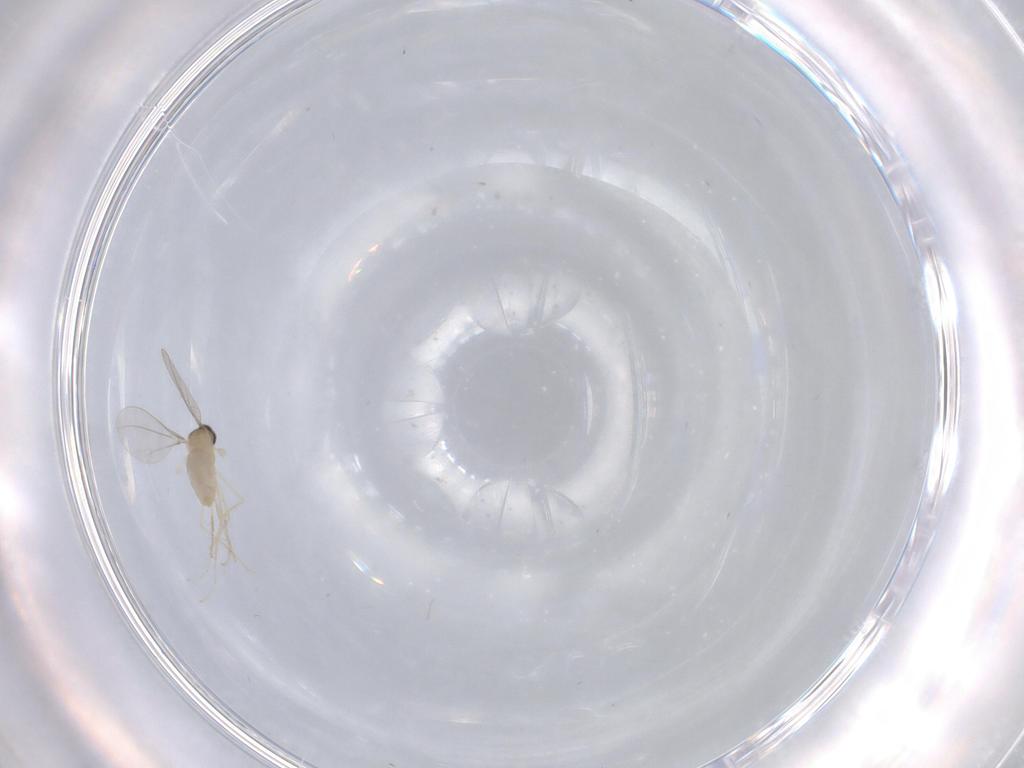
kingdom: Animalia
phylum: Arthropoda
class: Insecta
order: Diptera
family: Cecidomyiidae
